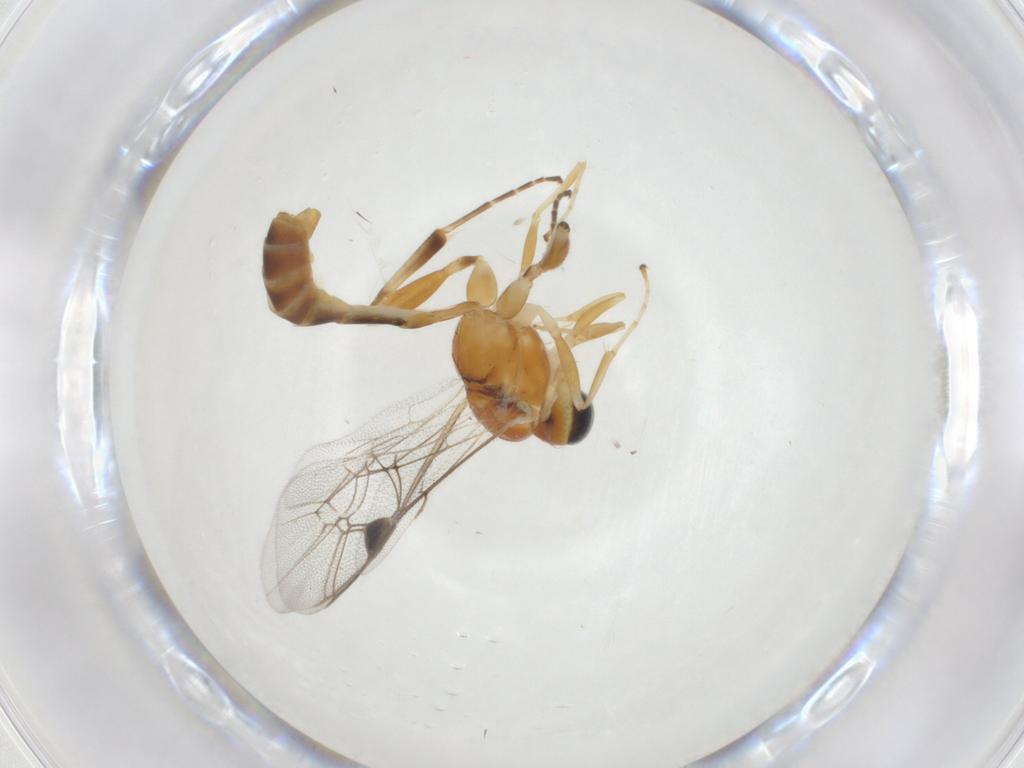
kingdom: Animalia
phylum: Arthropoda
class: Insecta
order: Hymenoptera
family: Ichneumonidae
